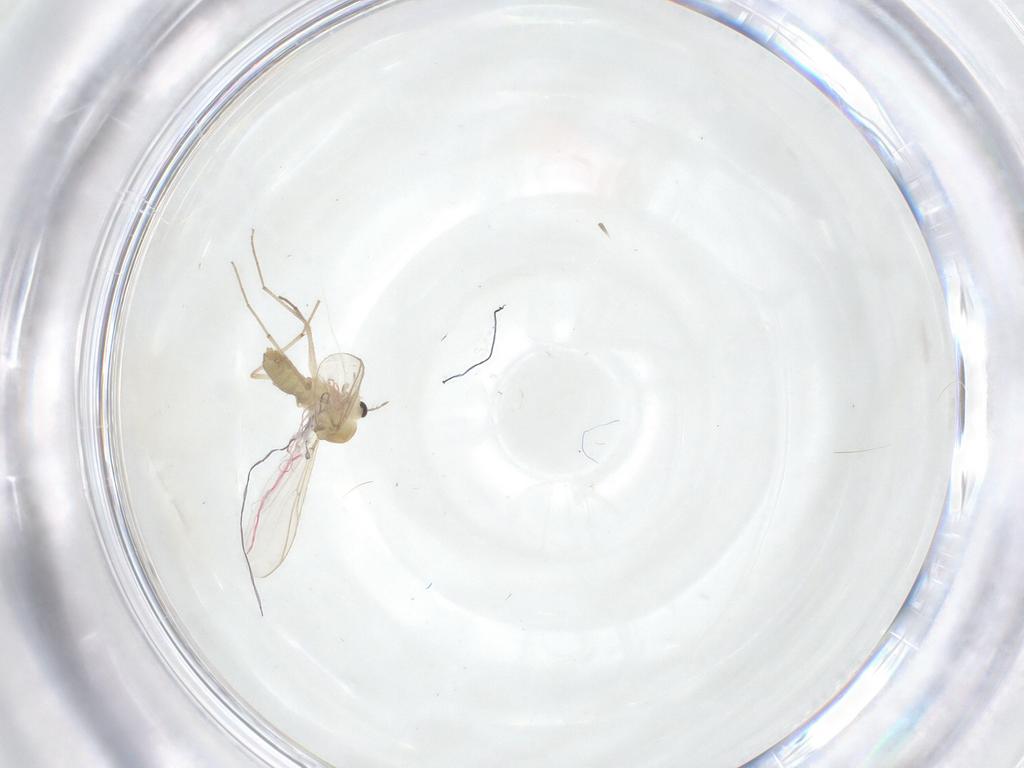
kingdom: Animalia
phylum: Arthropoda
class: Insecta
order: Diptera
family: Chironomidae
